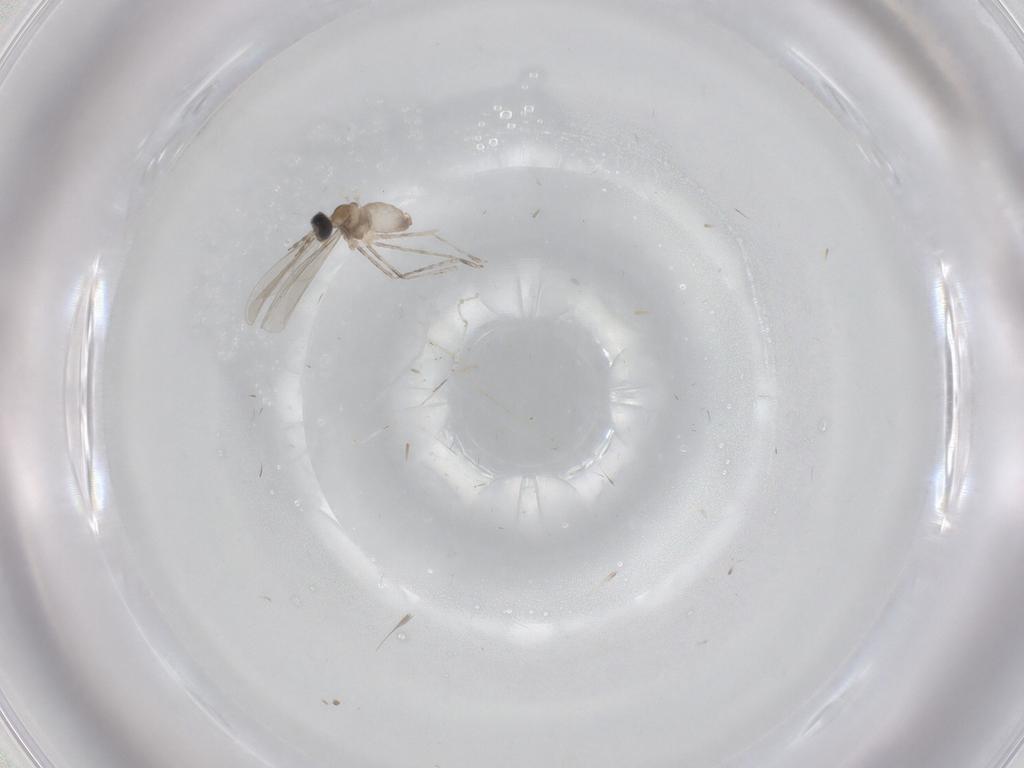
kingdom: Animalia
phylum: Arthropoda
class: Insecta
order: Diptera
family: Cecidomyiidae
